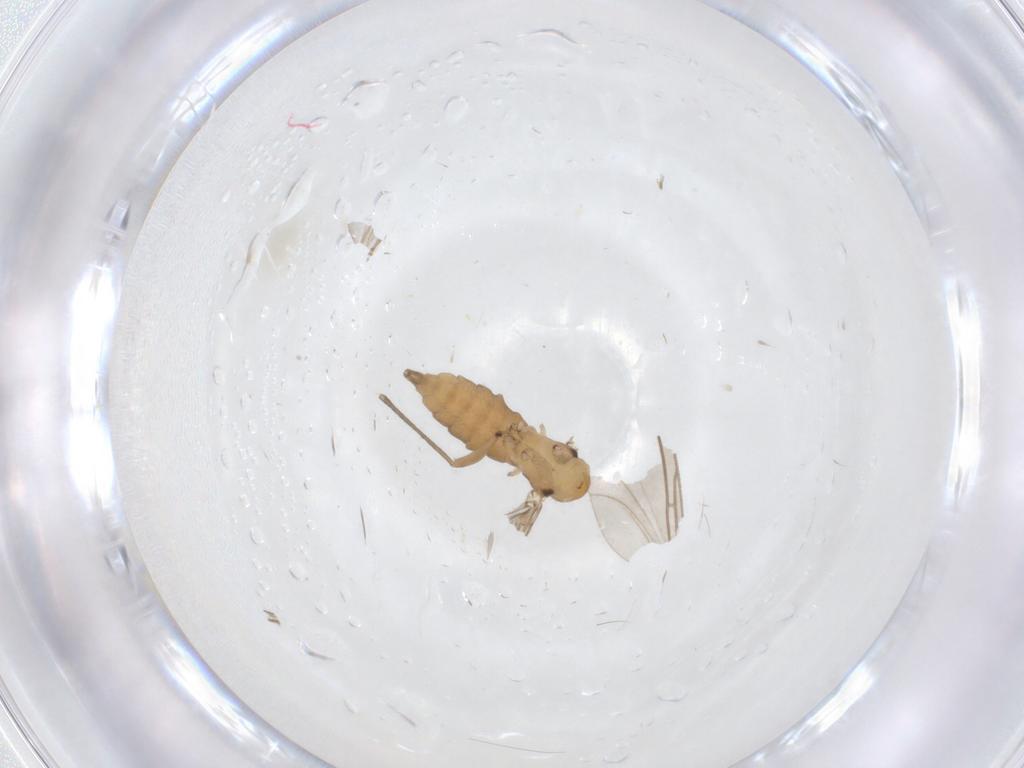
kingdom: Animalia
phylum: Arthropoda
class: Insecta
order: Diptera
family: Sciaridae
